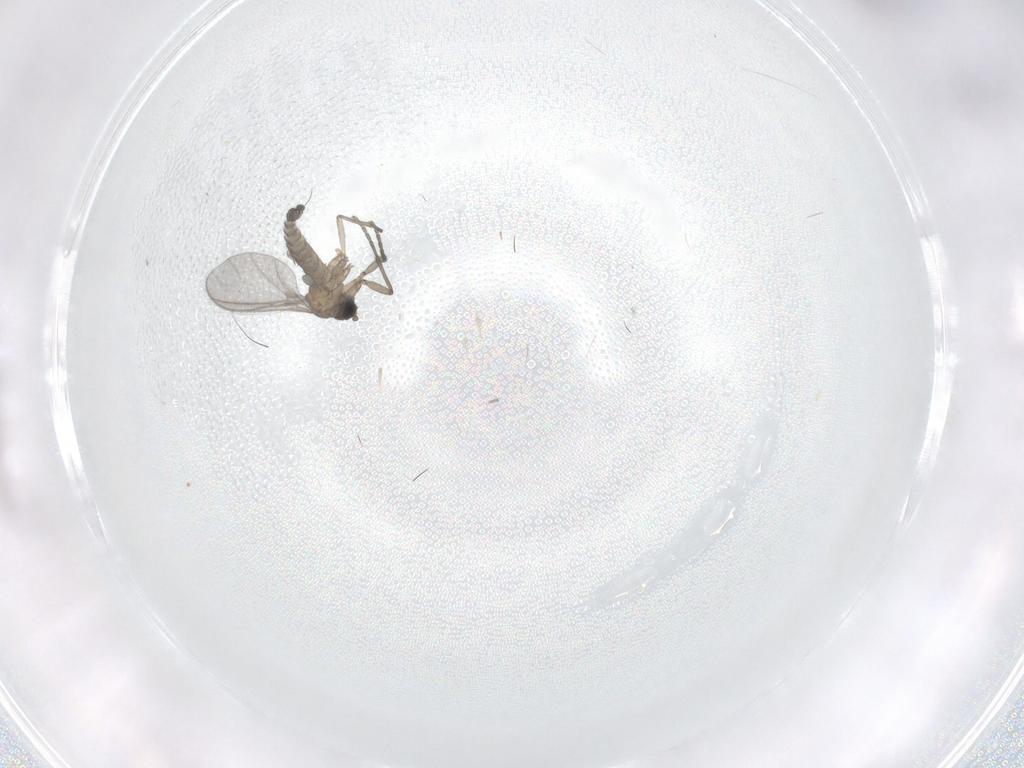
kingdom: Animalia
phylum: Arthropoda
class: Insecta
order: Diptera
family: Sciaridae
